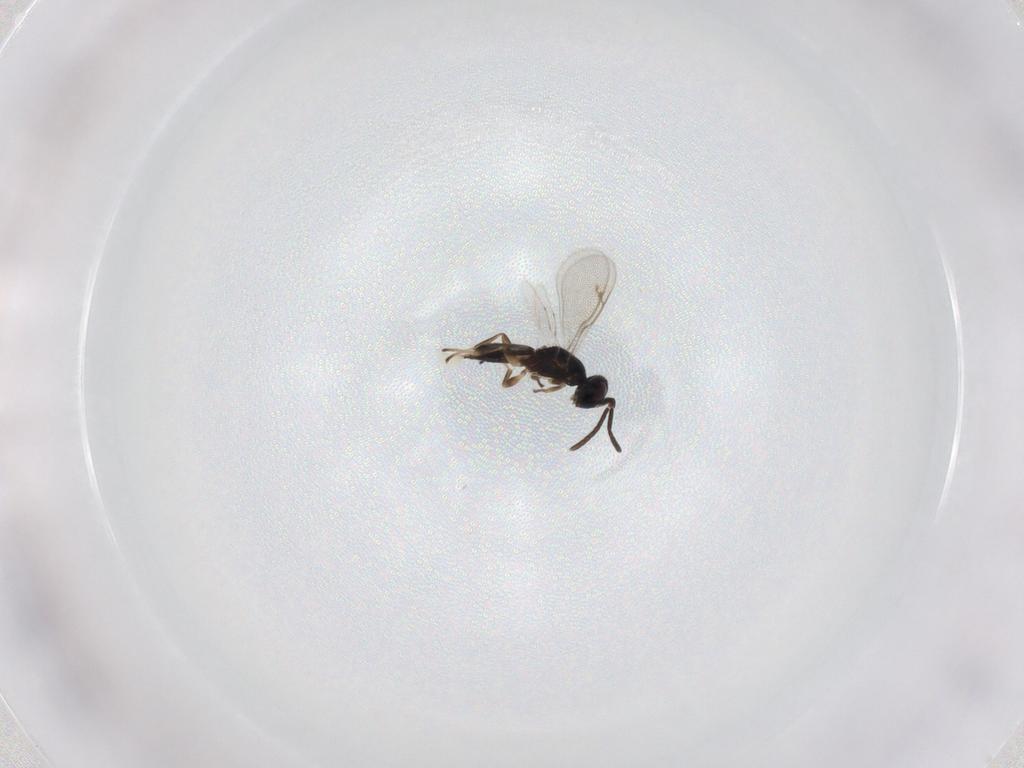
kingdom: Animalia
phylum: Arthropoda
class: Insecta
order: Hymenoptera
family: Eupelmidae
